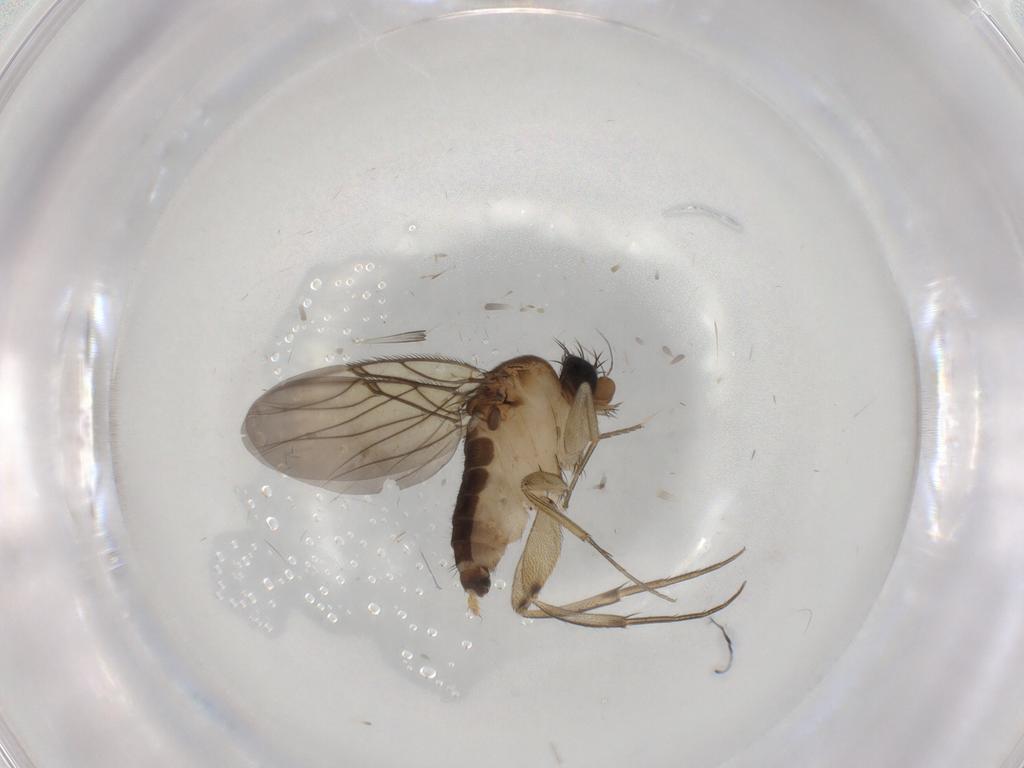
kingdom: Animalia
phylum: Arthropoda
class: Insecta
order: Diptera
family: Phoridae
